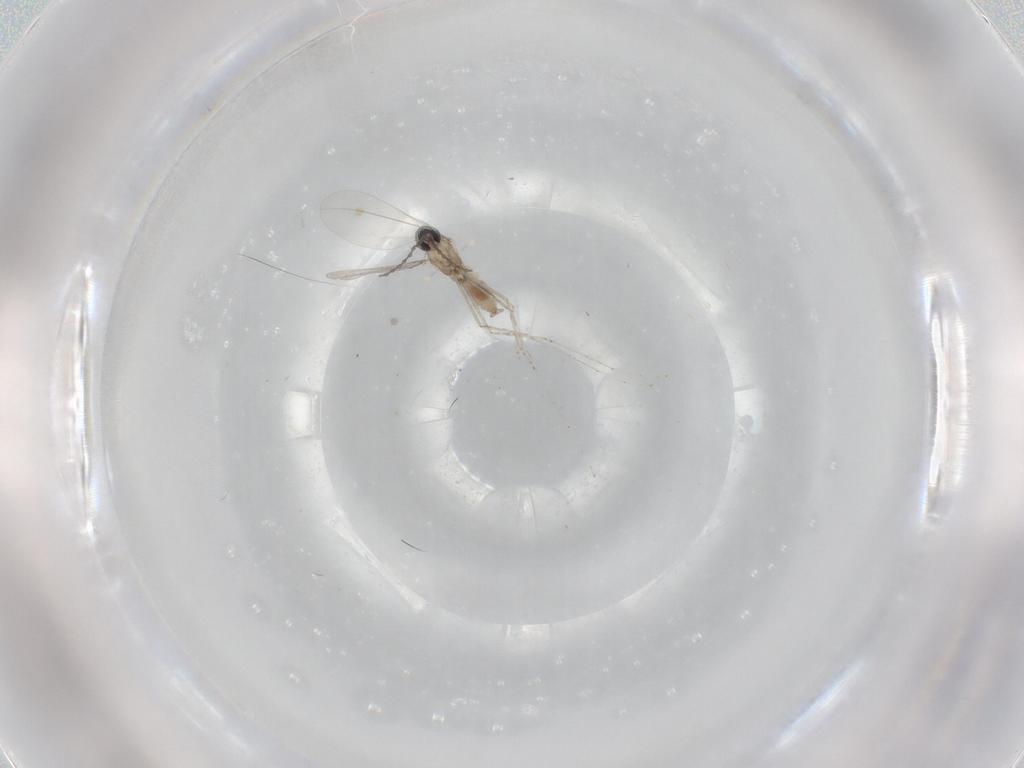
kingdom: Animalia
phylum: Arthropoda
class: Insecta
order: Diptera
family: Cecidomyiidae
